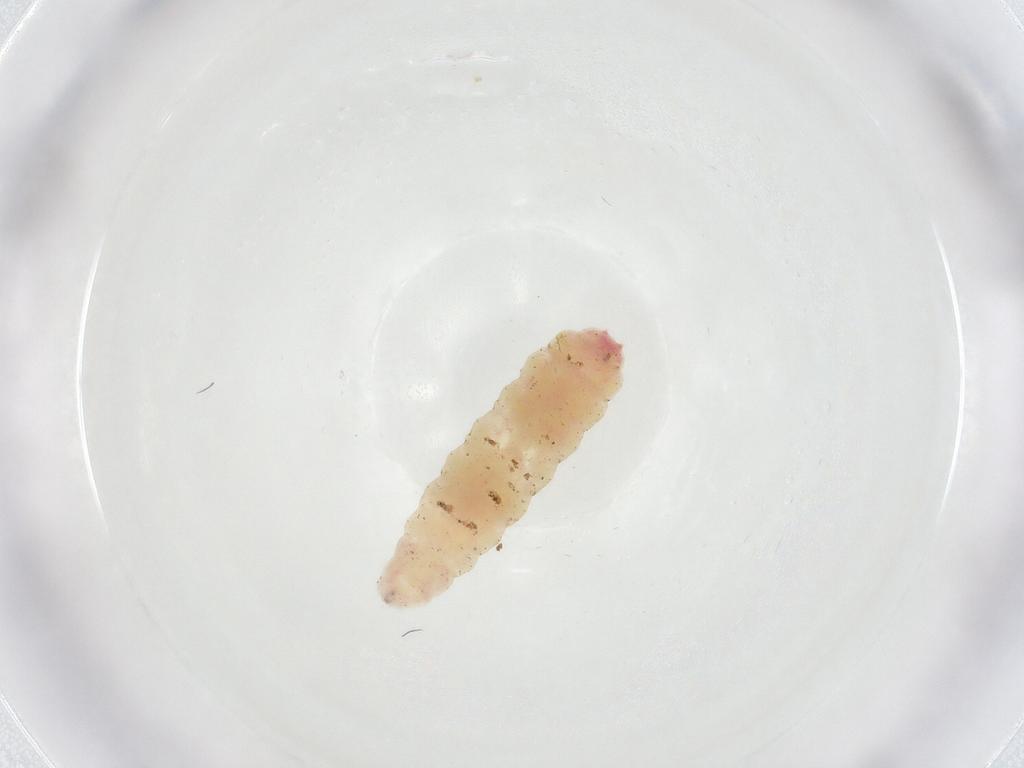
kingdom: Animalia
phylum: Arthropoda
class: Insecta
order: Diptera
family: Cecidomyiidae
